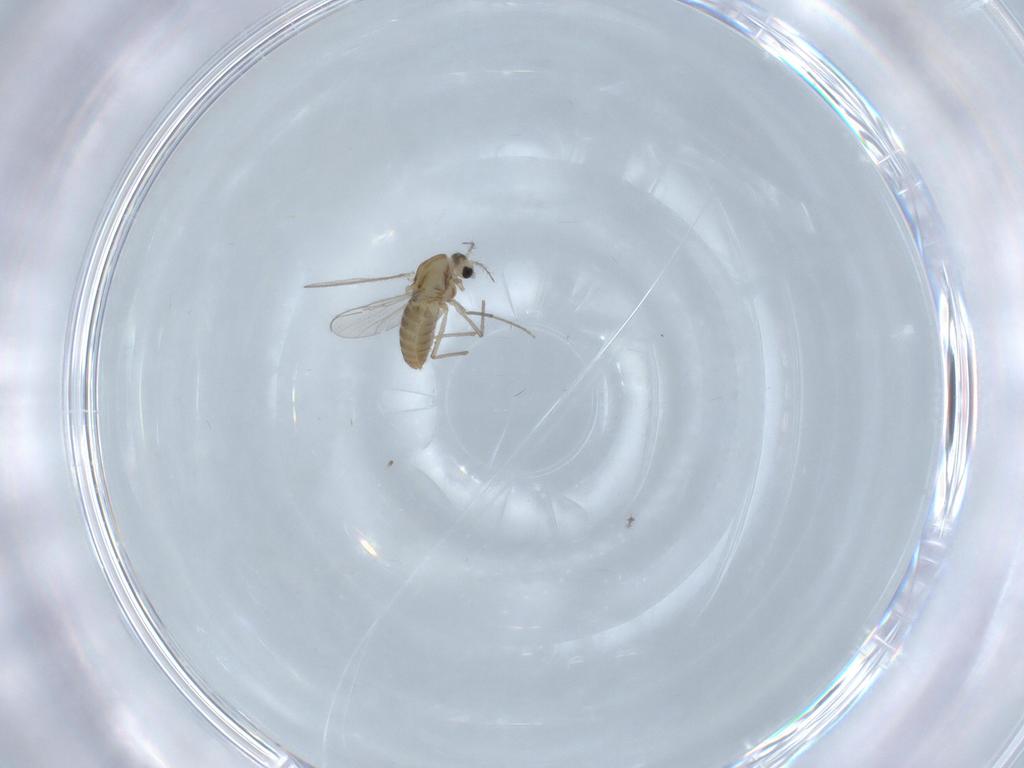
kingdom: Animalia
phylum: Arthropoda
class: Insecta
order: Diptera
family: Chironomidae
